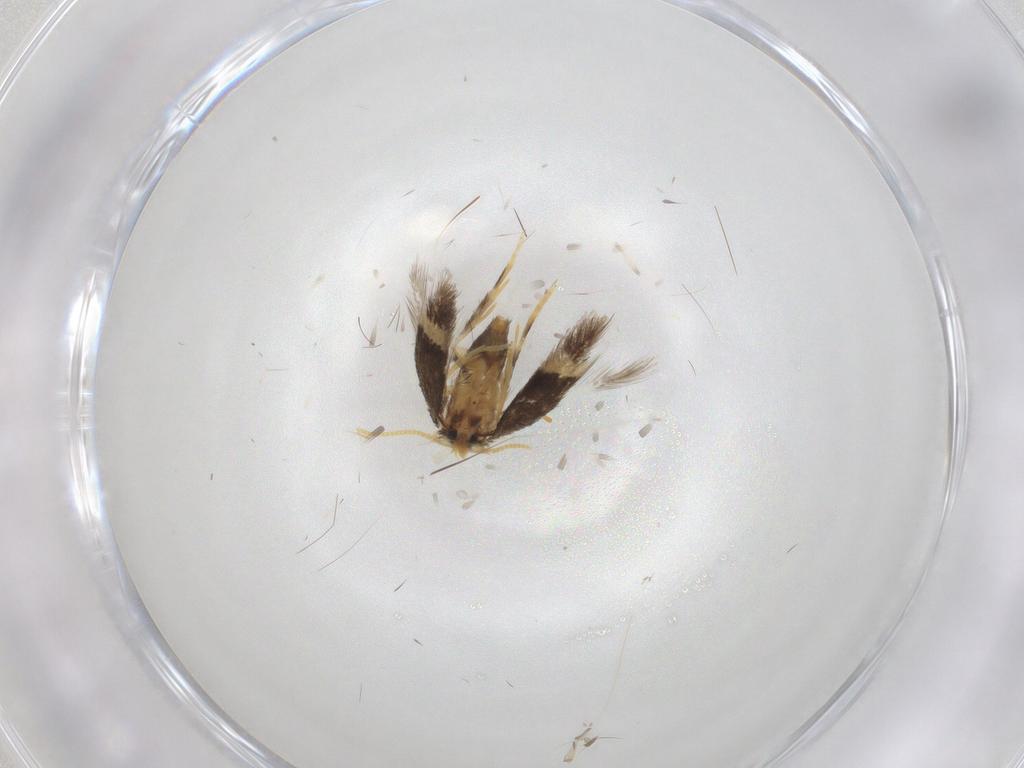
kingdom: Animalia
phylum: Arthropoda
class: Insecta
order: Lepidoptera
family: Nepticulidae
